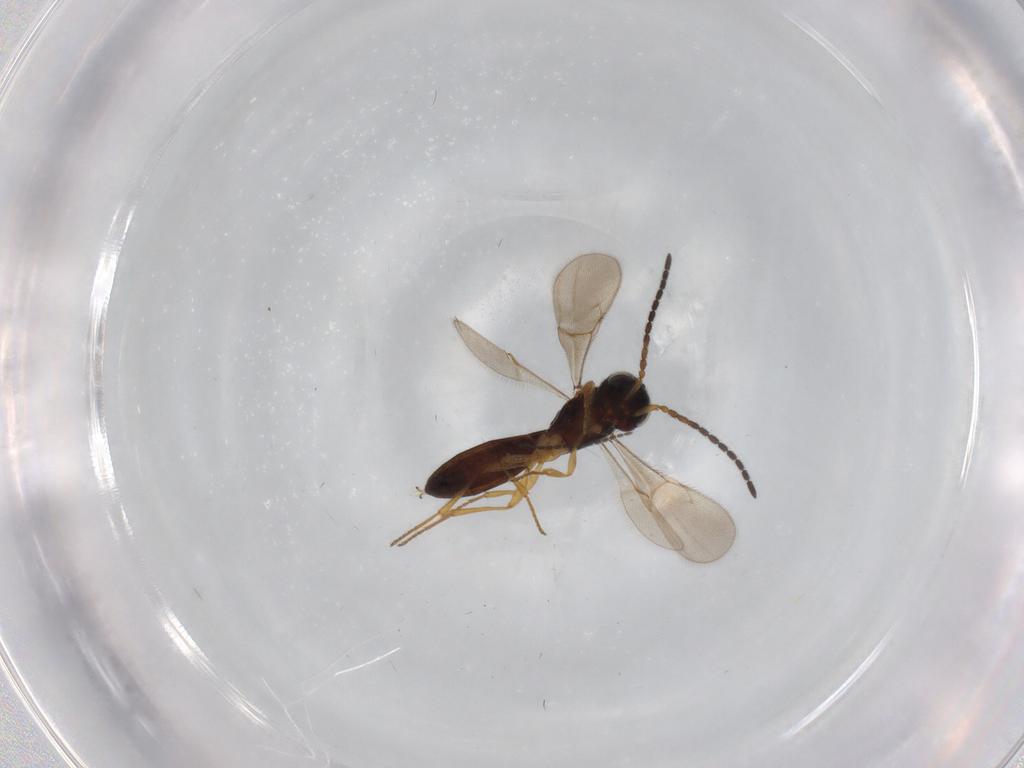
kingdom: Animalia
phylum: Arthropoda
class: Insecta
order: Hymenoptera
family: Scelionidae
